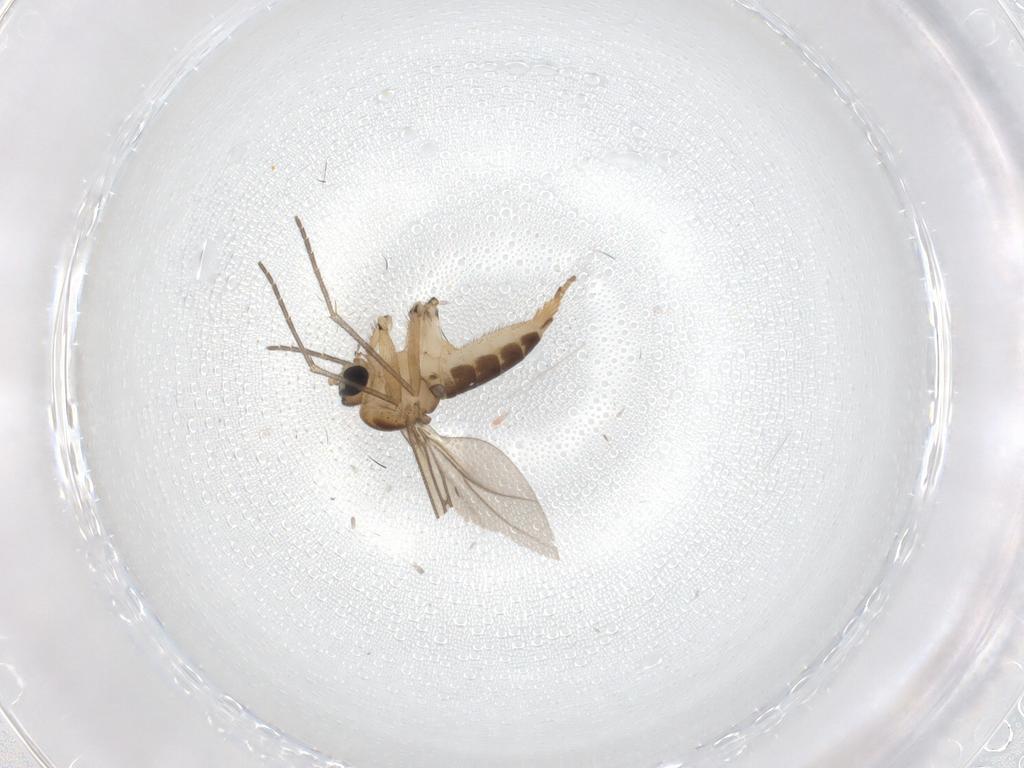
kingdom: Animalia
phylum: Arthropoda
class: Insecta
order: Diptera
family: Sciaridae
